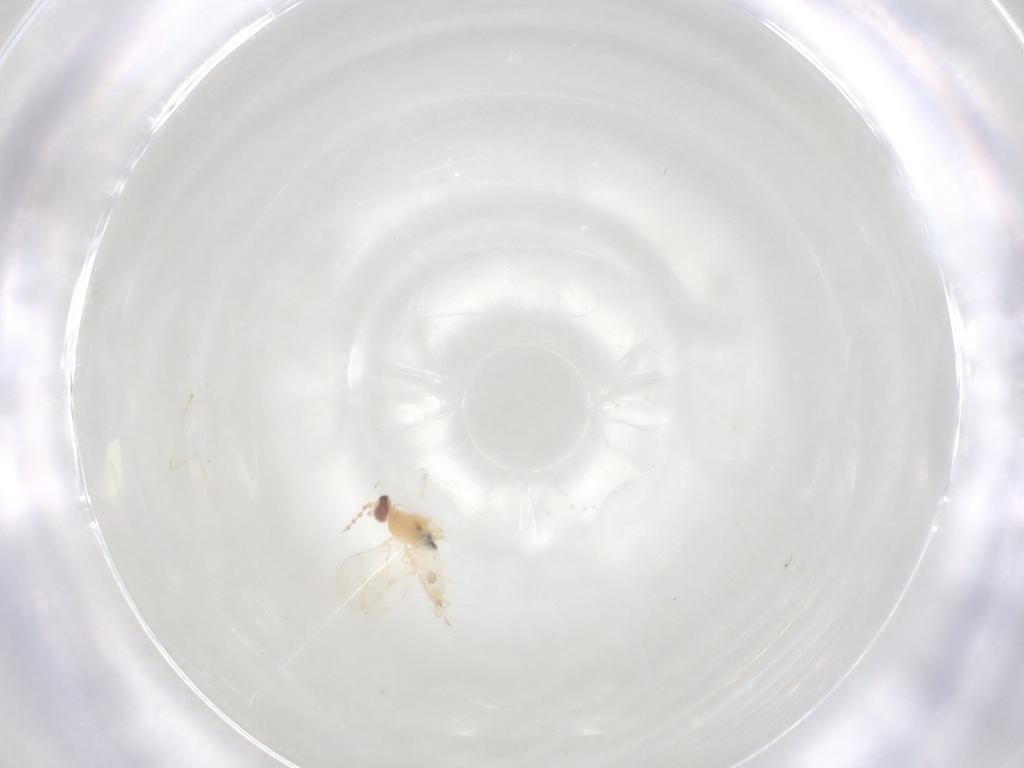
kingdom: Animalia
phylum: Arthropoda
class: Insecta
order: Diptera
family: Cecidomyiidae
